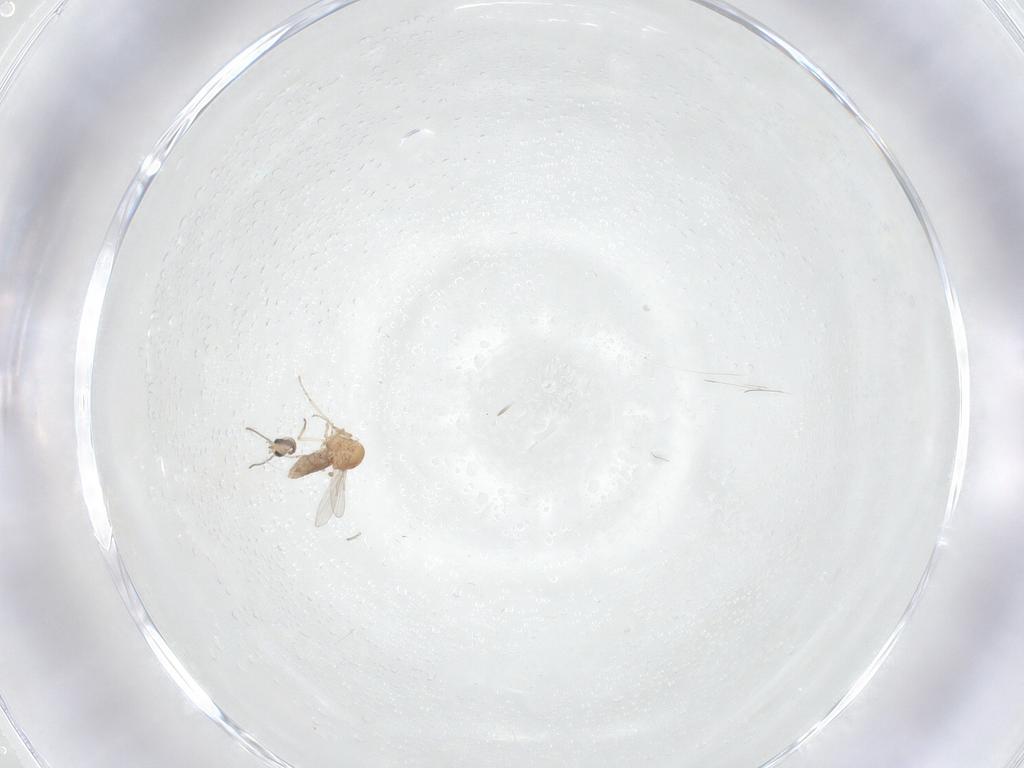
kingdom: Animalia
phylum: Arthropoda
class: Insecta
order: Diptera
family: Ceratopogonidae
